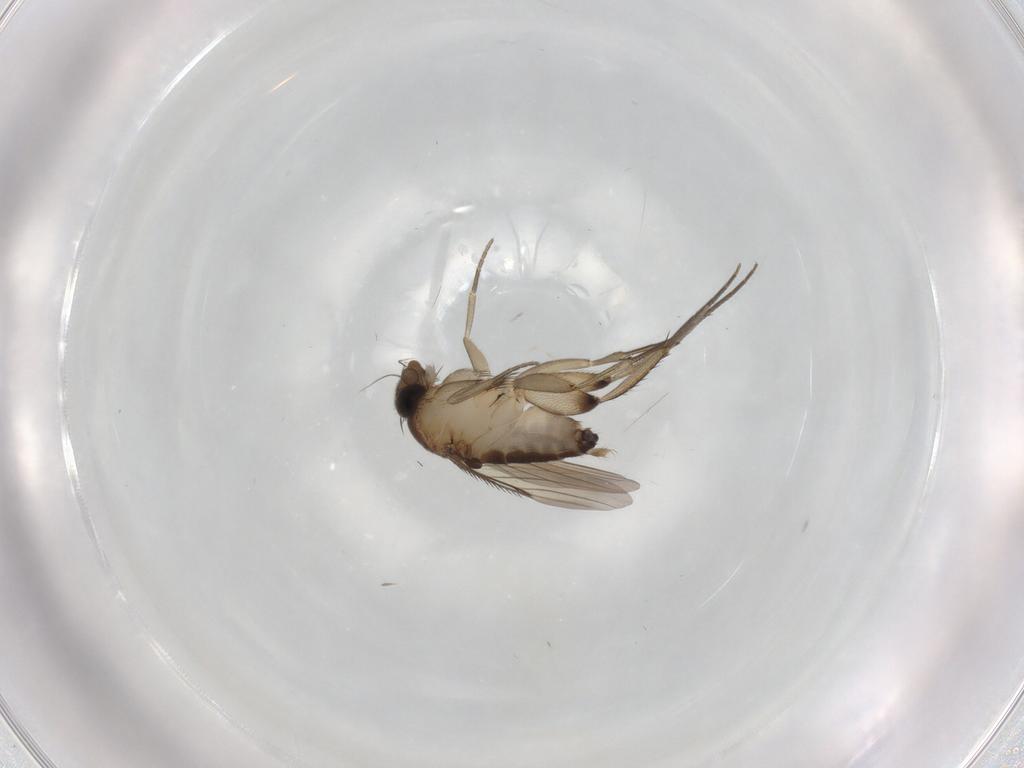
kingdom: Animalia
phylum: Arthropoda
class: Insecta
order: Diptera
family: Phoridae
